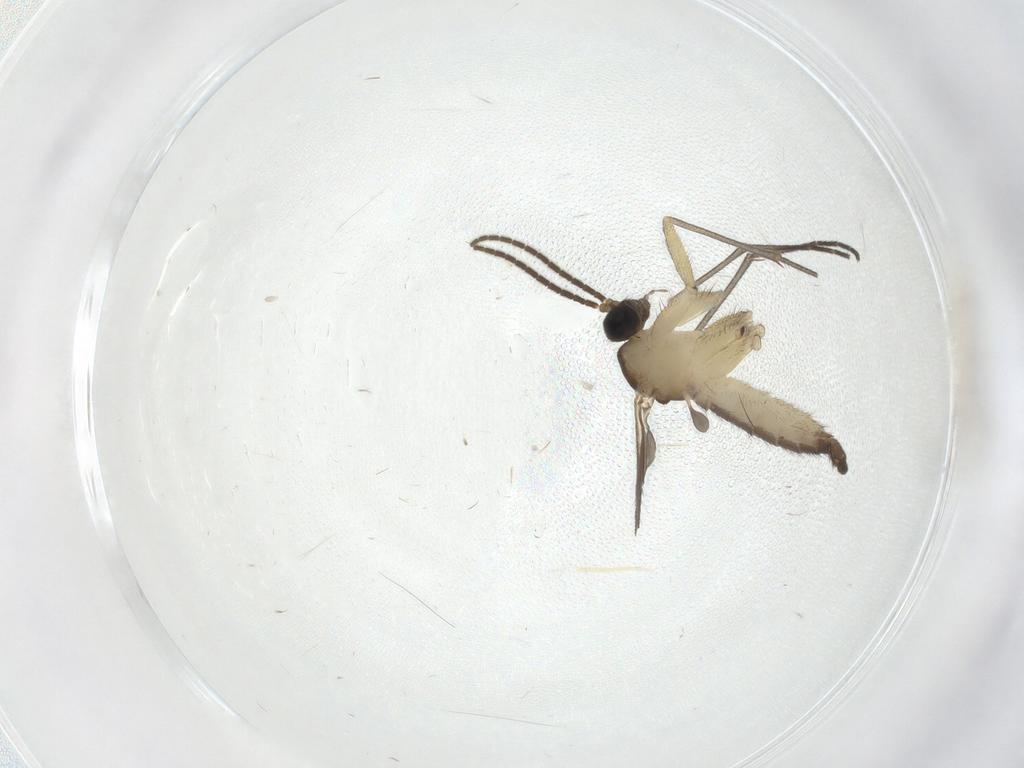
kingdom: Animalia
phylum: Arthropoda
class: Insecta
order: Diptera
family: Sciaridae
